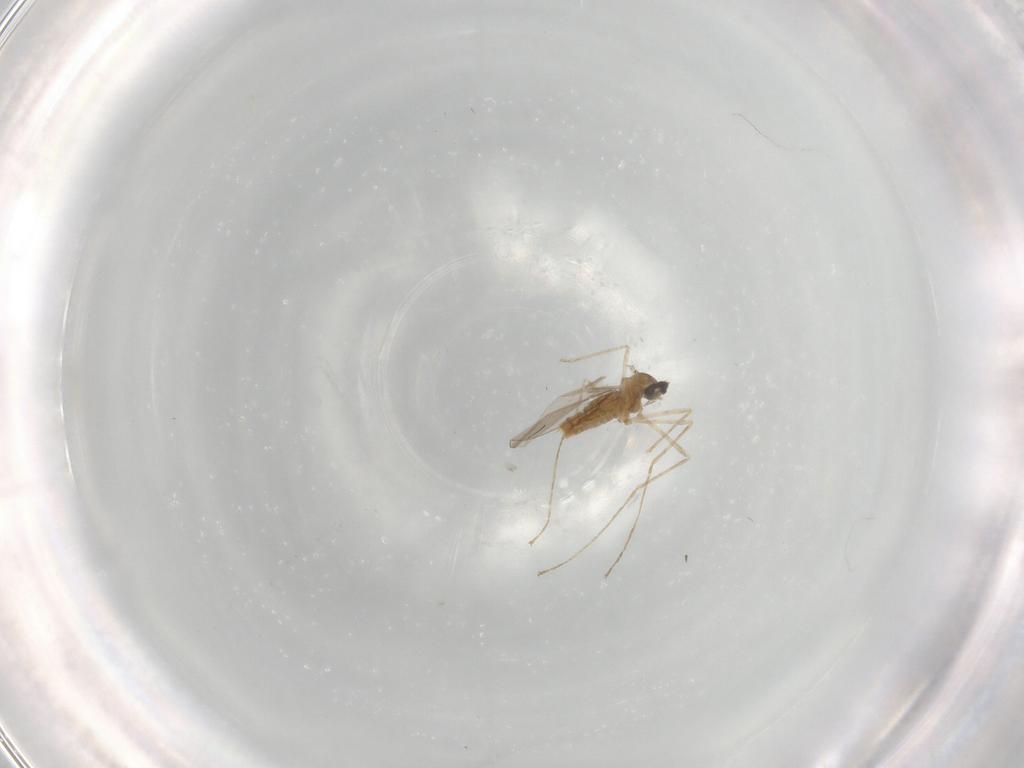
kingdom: Animalia
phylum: Arthropoda
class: Insecta
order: Diptera
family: Cecidomyiidae
